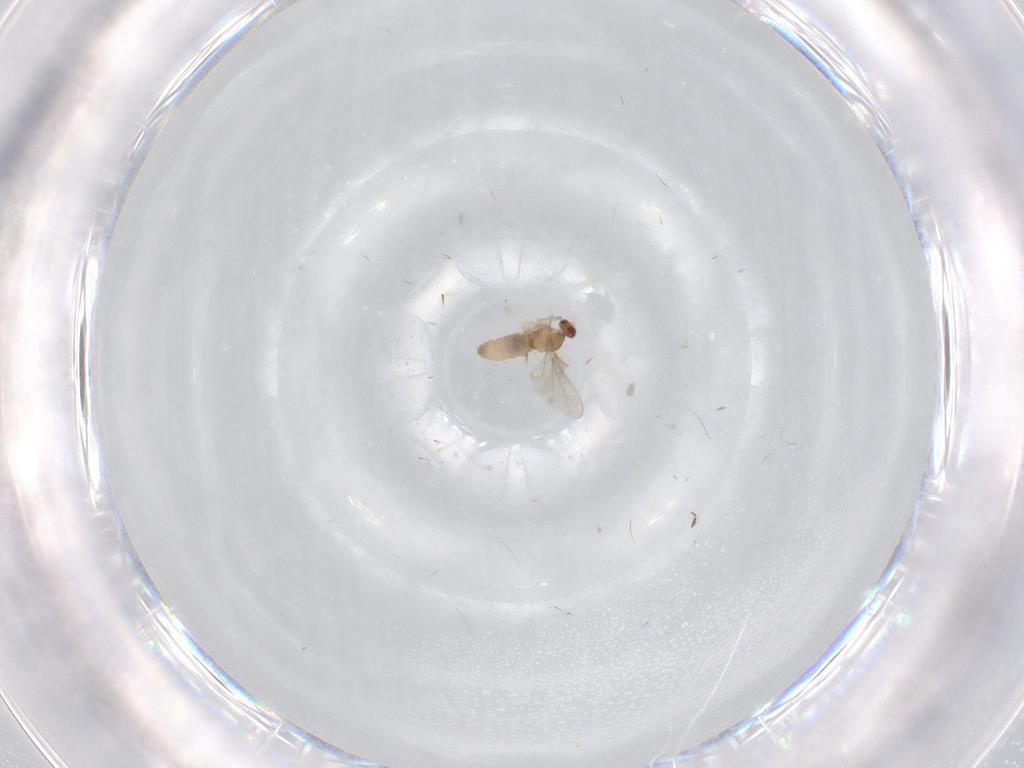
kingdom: Animalia
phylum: Arthropoda
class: Insecta
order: Diptera
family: Cecidomyiidae
